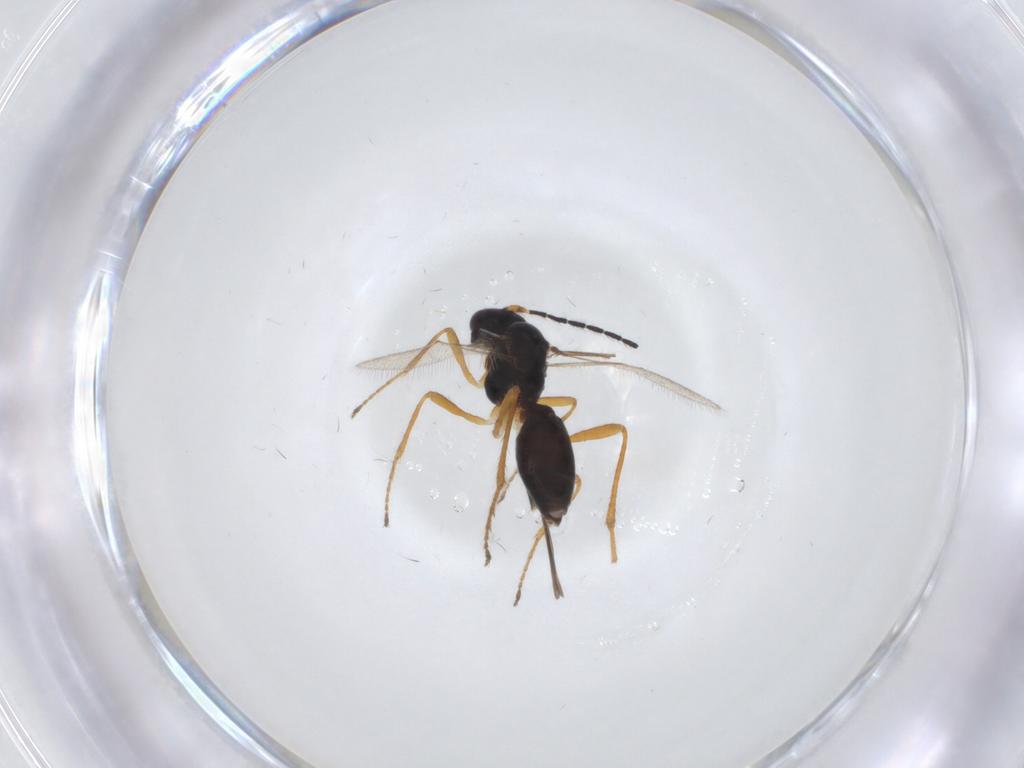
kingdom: Animalia
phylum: Arthropoda
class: Insecta
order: Hymenoptera
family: Braconidae
